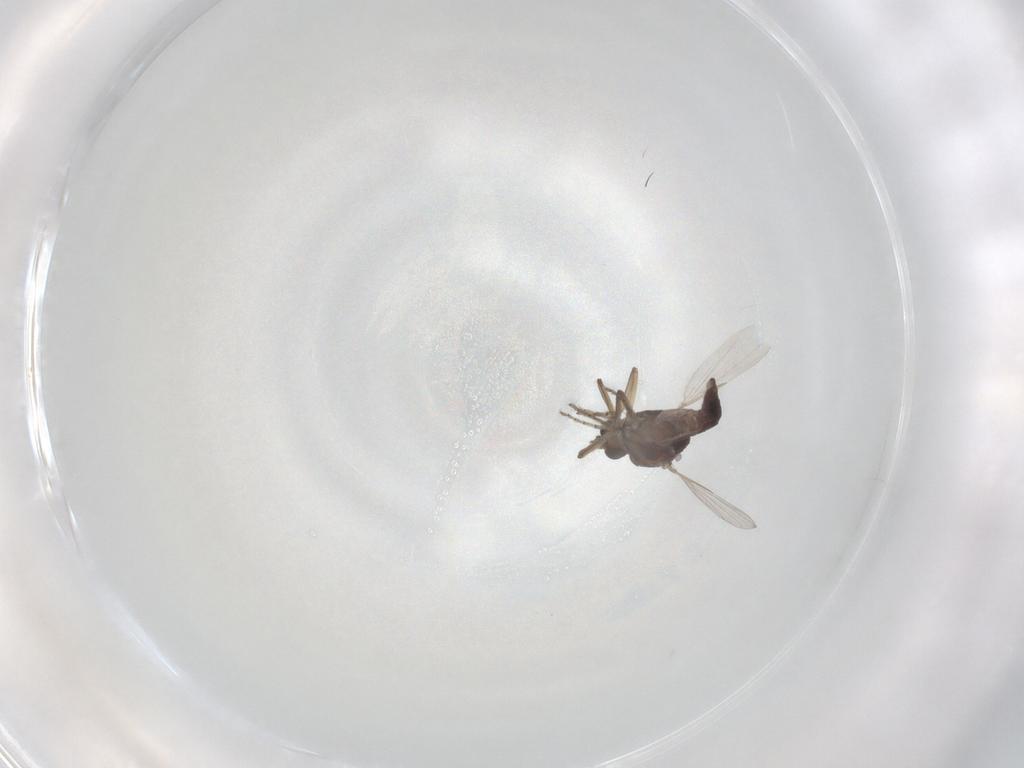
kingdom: Animalia
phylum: Arthropoda
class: Insecta
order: Diptera
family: Ceratopogonidae
